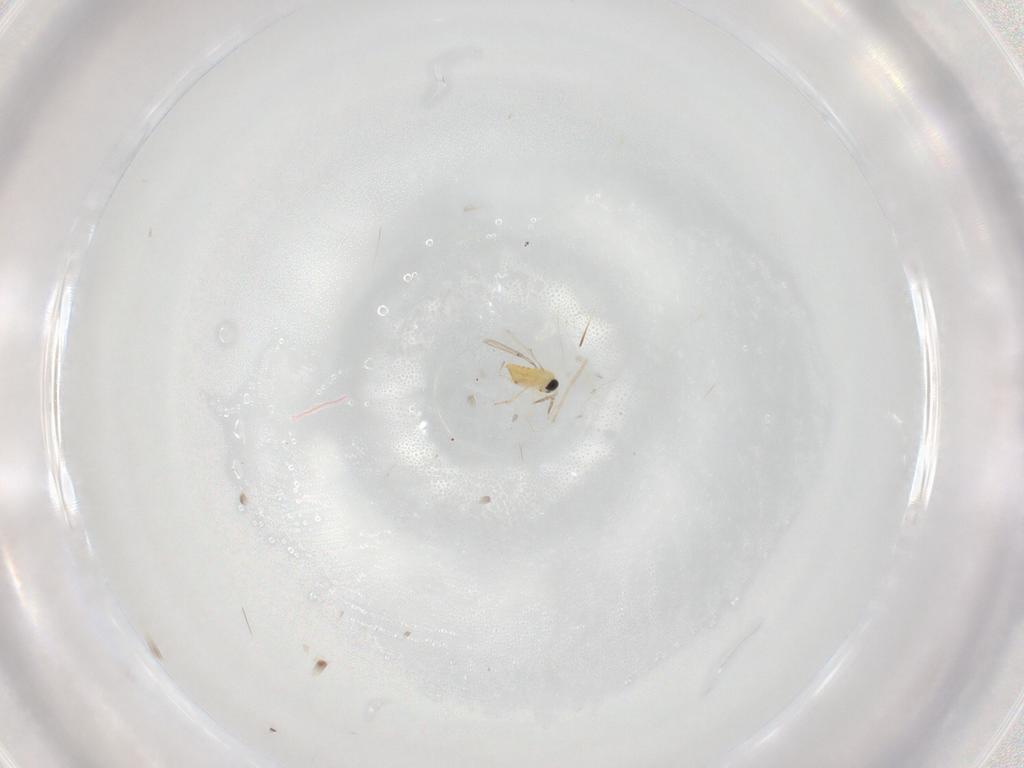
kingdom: Animalia
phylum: Arthropoda
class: Insecta
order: Hymenoptera
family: Trichogrammatidae
